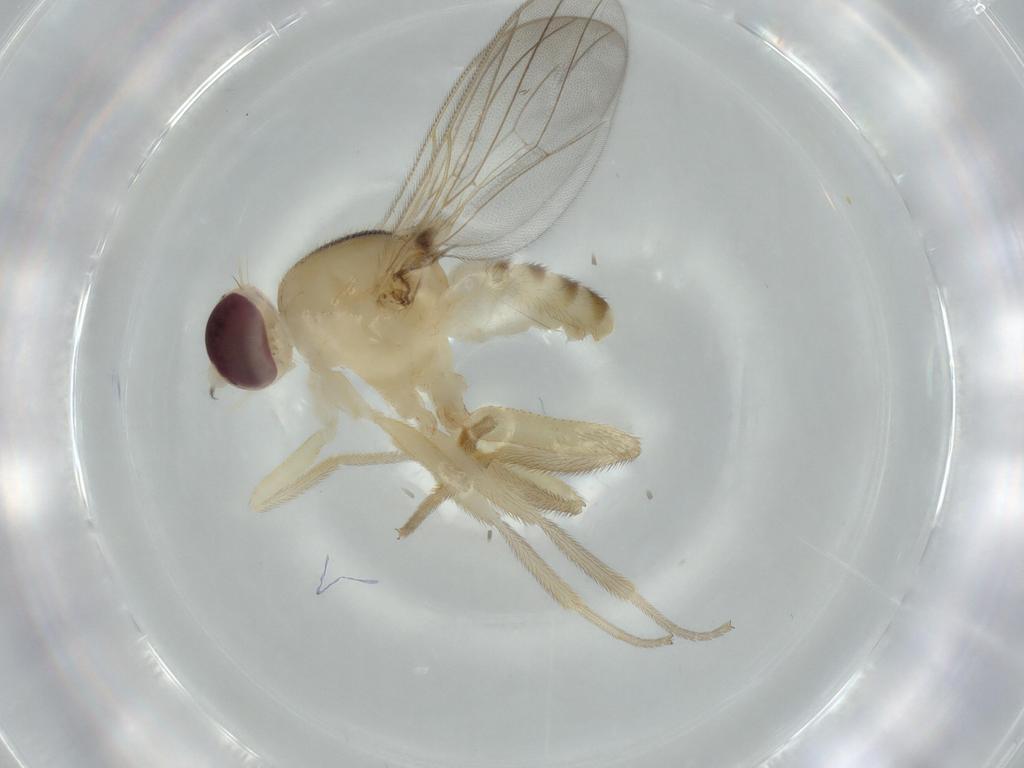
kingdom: Animalia
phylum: Arthropoda
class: Insecta
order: Diptera
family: Chloropidae
